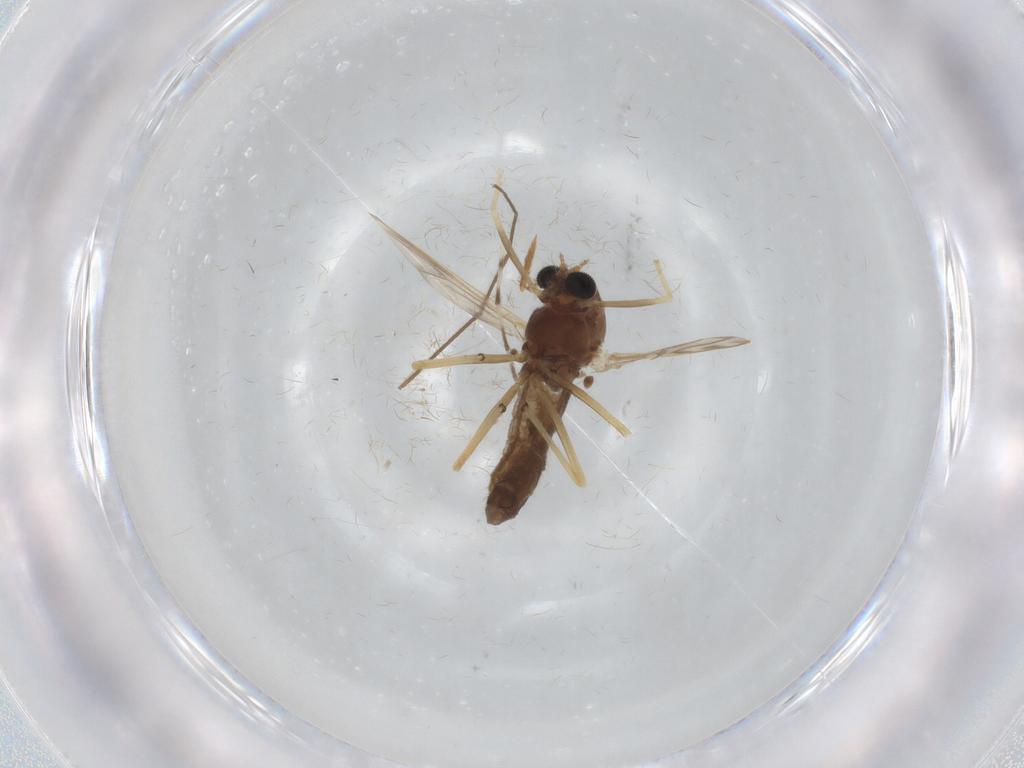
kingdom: Animalia
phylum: Arthropoda
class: Insecta
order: Diptera
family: Chironomidae
